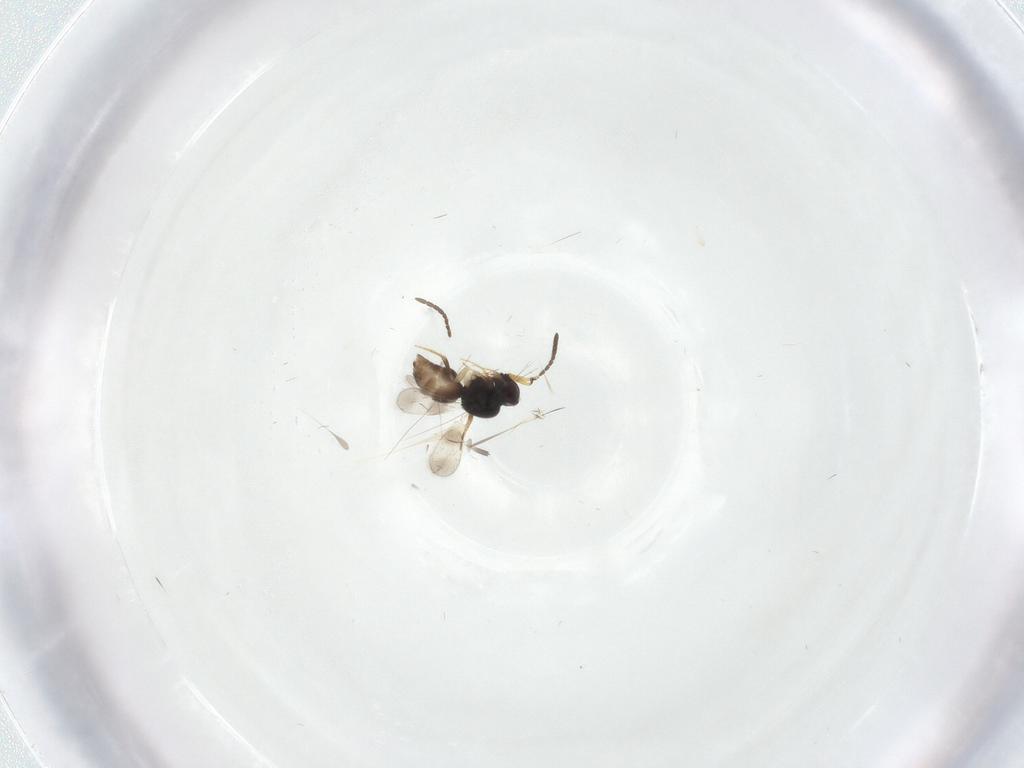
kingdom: Animalia
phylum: Arthropoda
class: Insecta
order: Hymenoptera
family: Ceraphronidae
